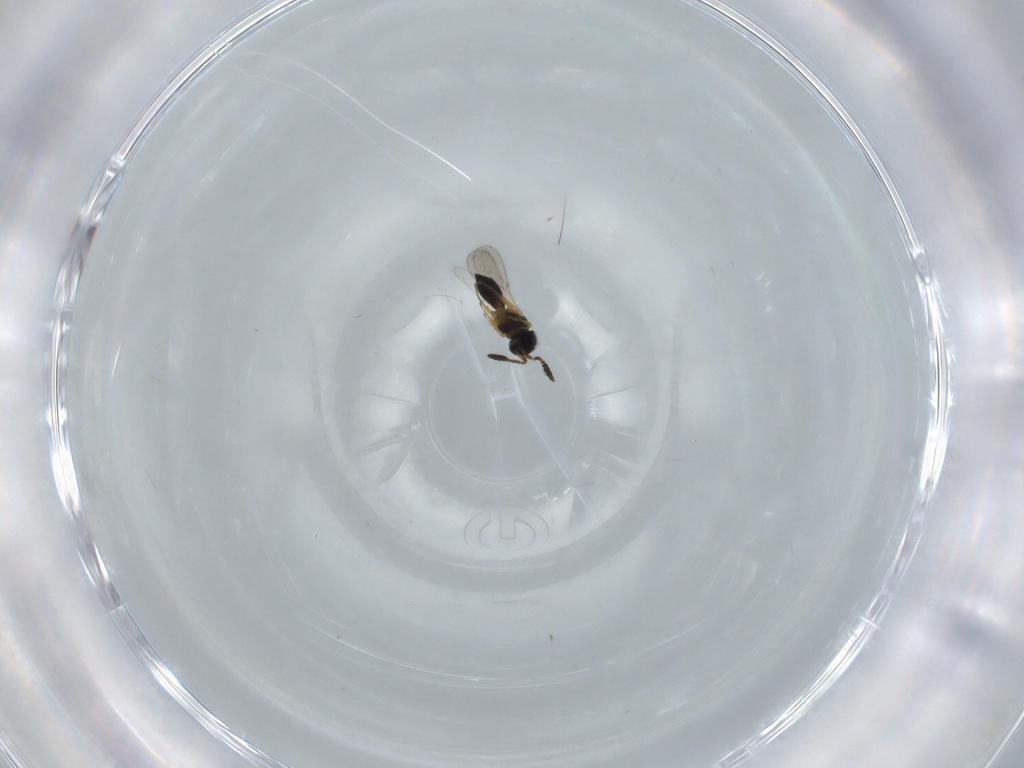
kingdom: Animalia
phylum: Arthropoda
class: Insecta
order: Hymenoptera
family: Scelionidae
